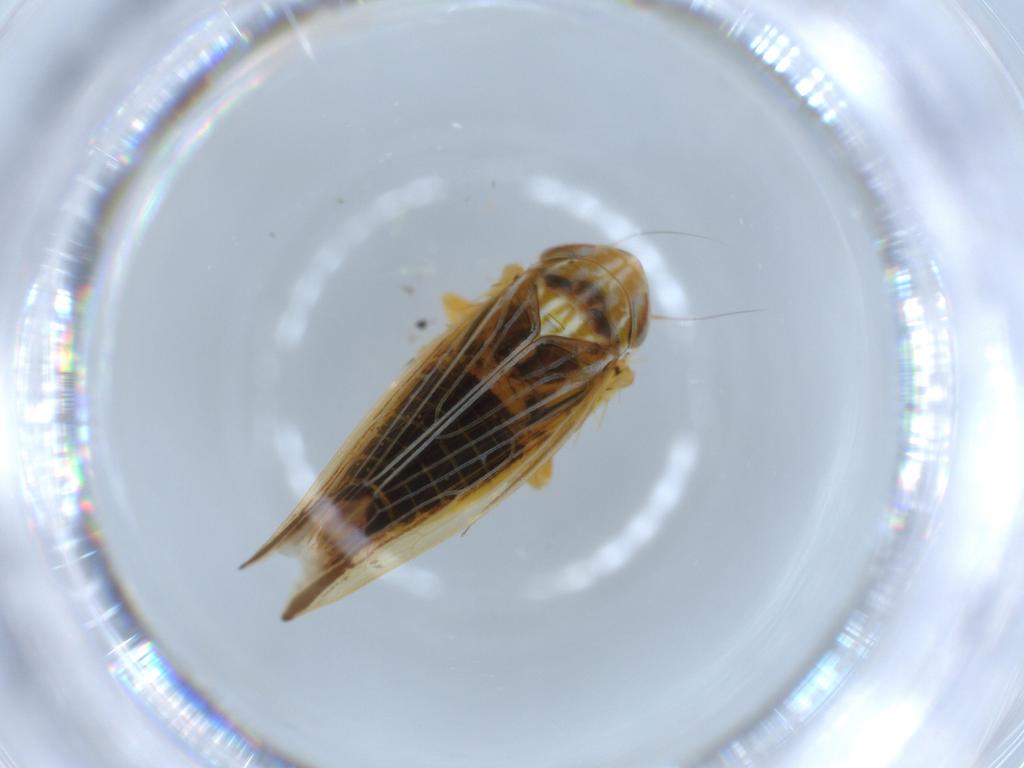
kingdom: Animalia
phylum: Arthropoda
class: Insecta
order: Hemiptera
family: Cicadellidae
